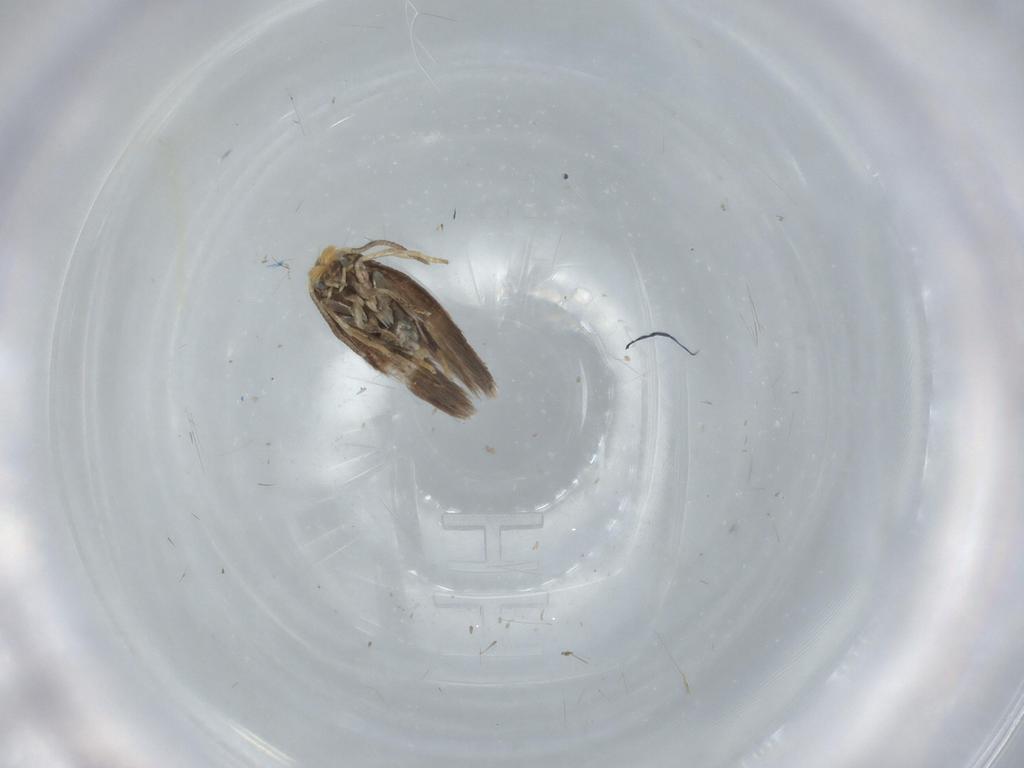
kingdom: Animalia
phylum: Arthropoda
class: Insecta
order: Lepidoptera
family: Nepticulidae
